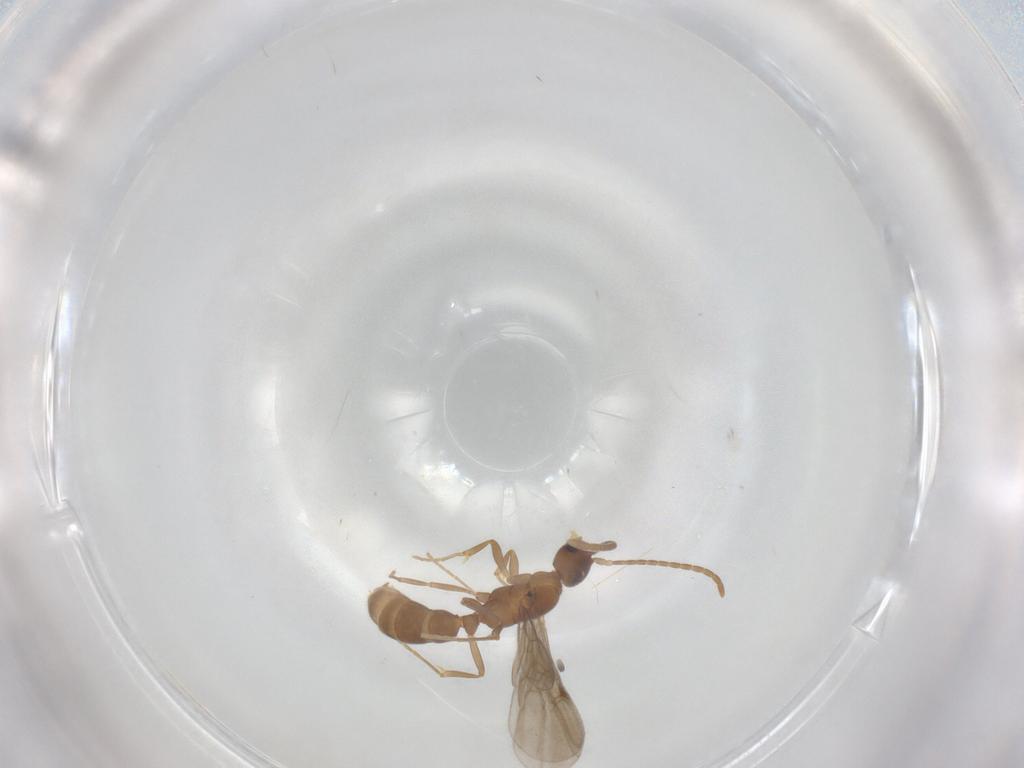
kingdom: Animalia
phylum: Arthropoda
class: Insecta
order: Hymenoptera
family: Formicidae
